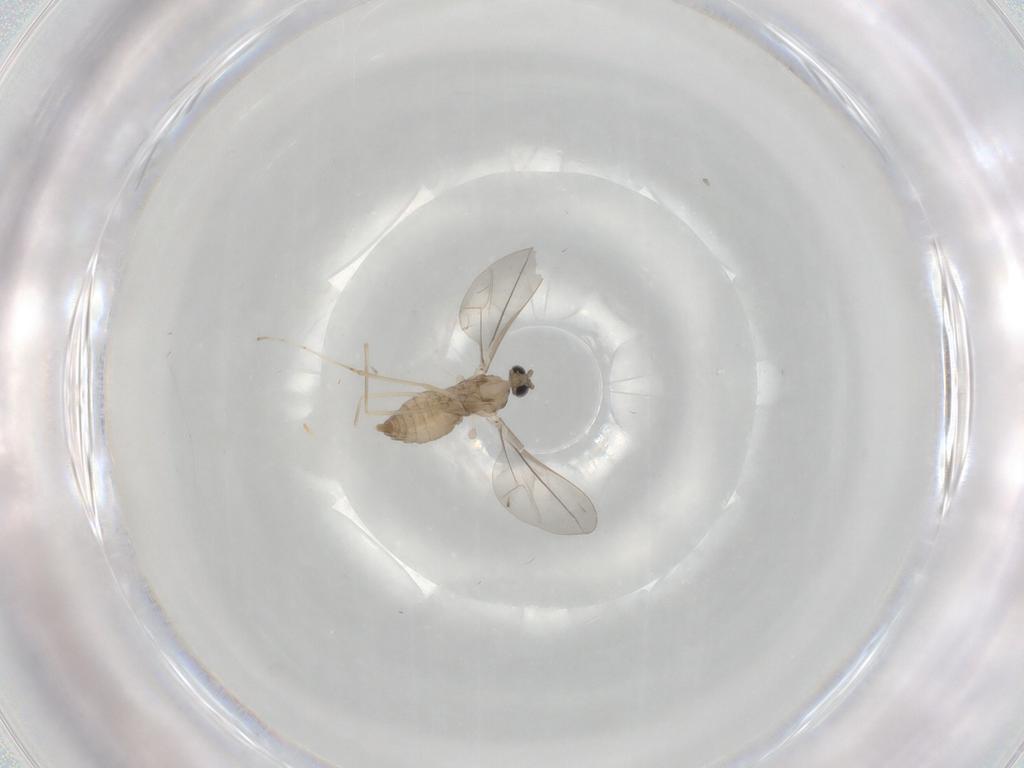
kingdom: Animalia
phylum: Arthropoda
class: Insecta
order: Diptera
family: Cecidomyiidae
